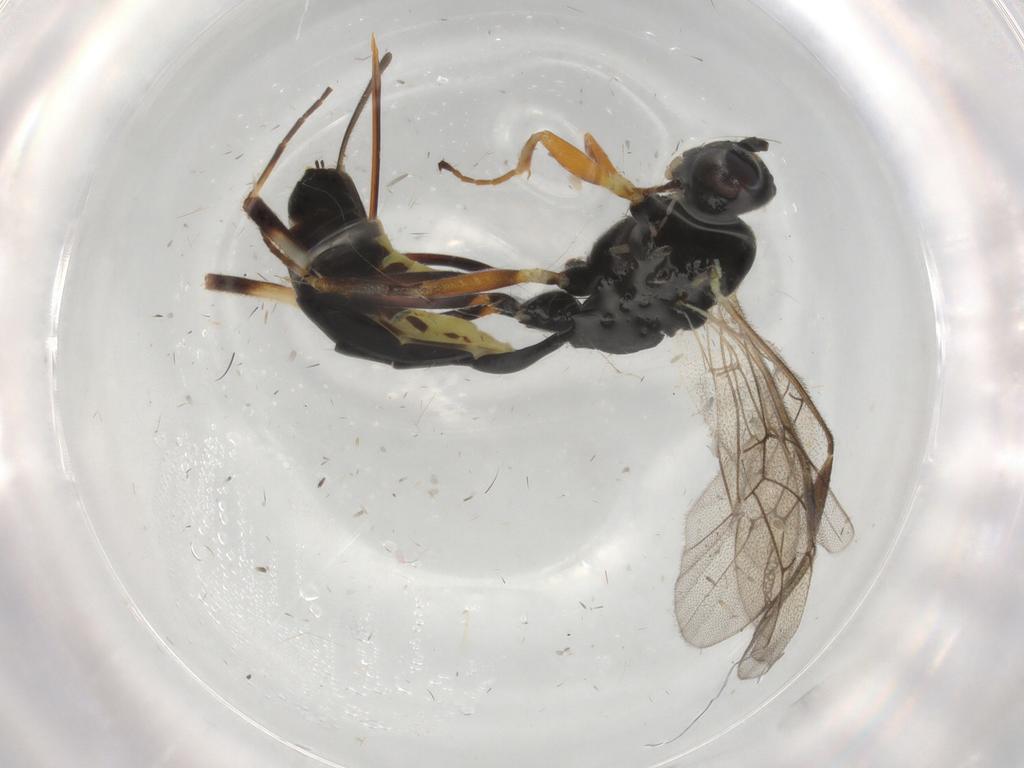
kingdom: Animalia
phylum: Arthropoda
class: Insecta
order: Hymenoptera
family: Ichneumonidae
